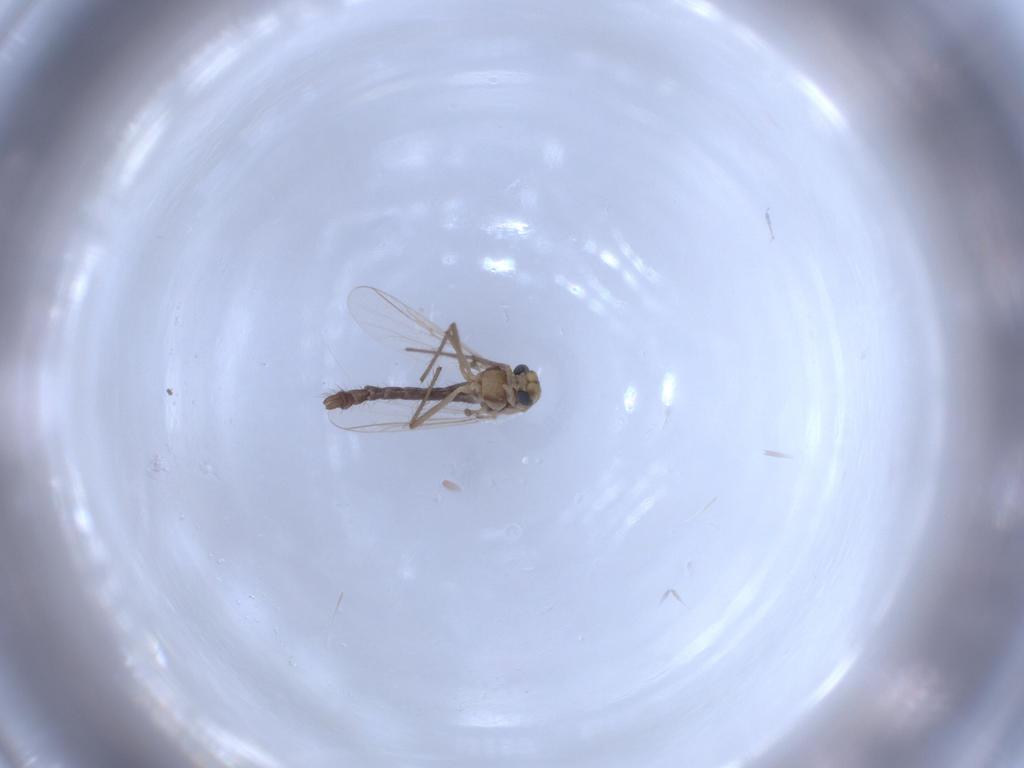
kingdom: Animalia
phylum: Arthropoda
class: Insecta
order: Diptera
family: Chironomidae
